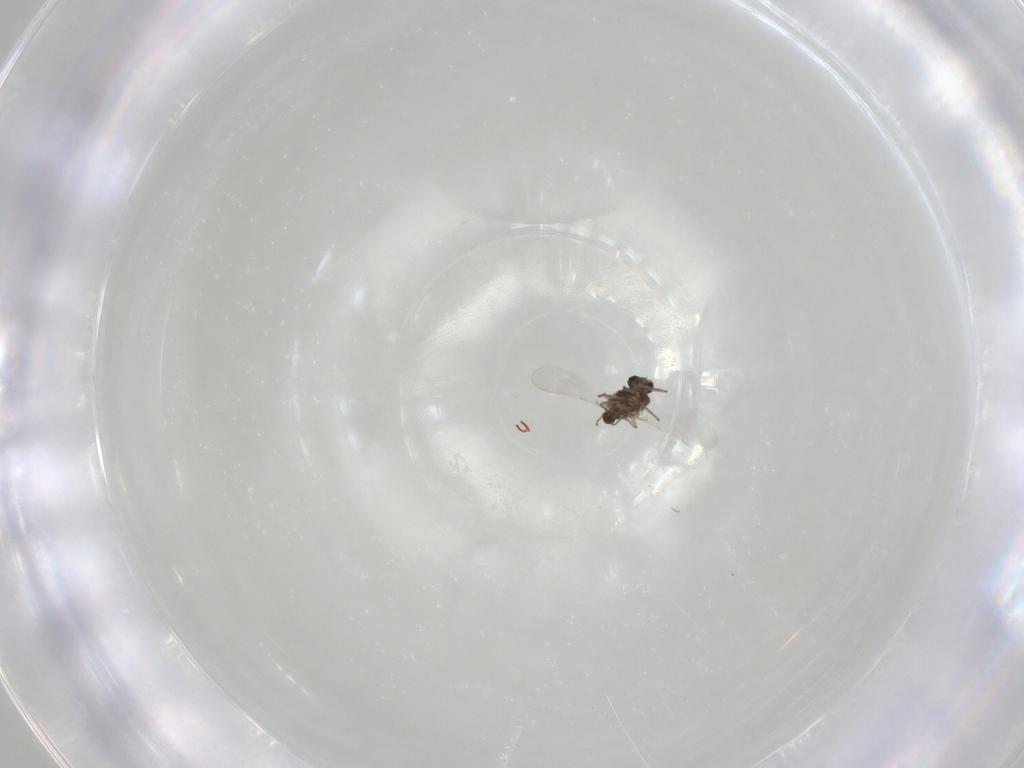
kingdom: Animalia
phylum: Arthropoda
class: Insecta
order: Diptera
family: Chironomidae
